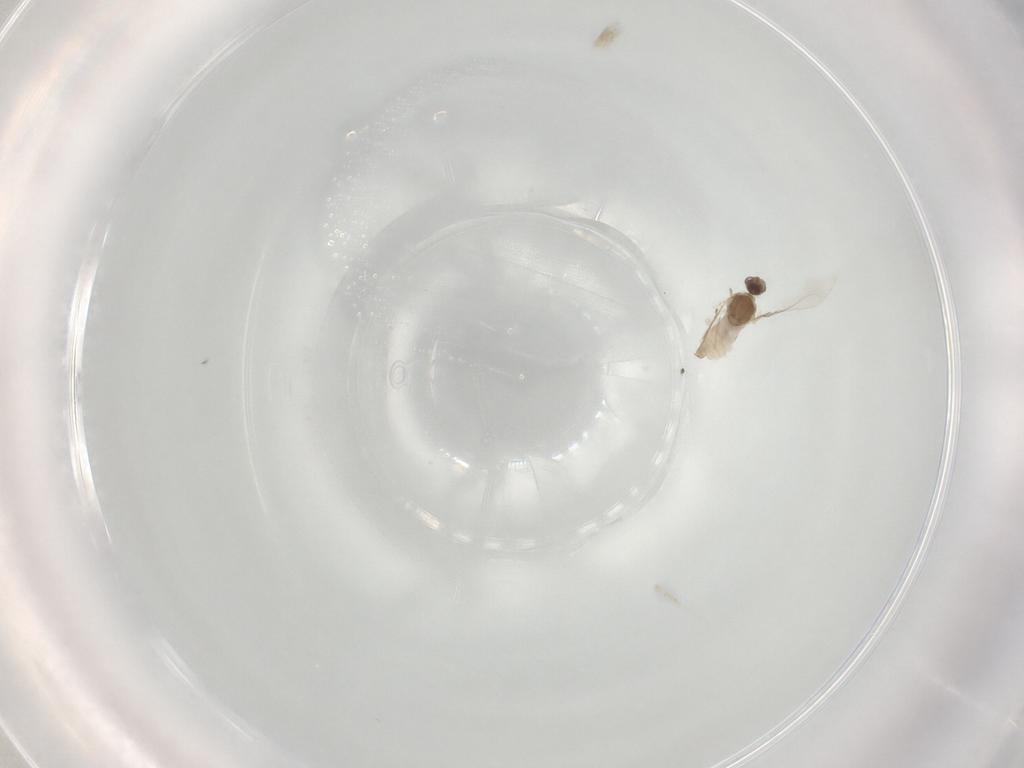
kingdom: Animalia
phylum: Arthropoda
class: Insecta
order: Diptera
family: Cecidomyiidae
